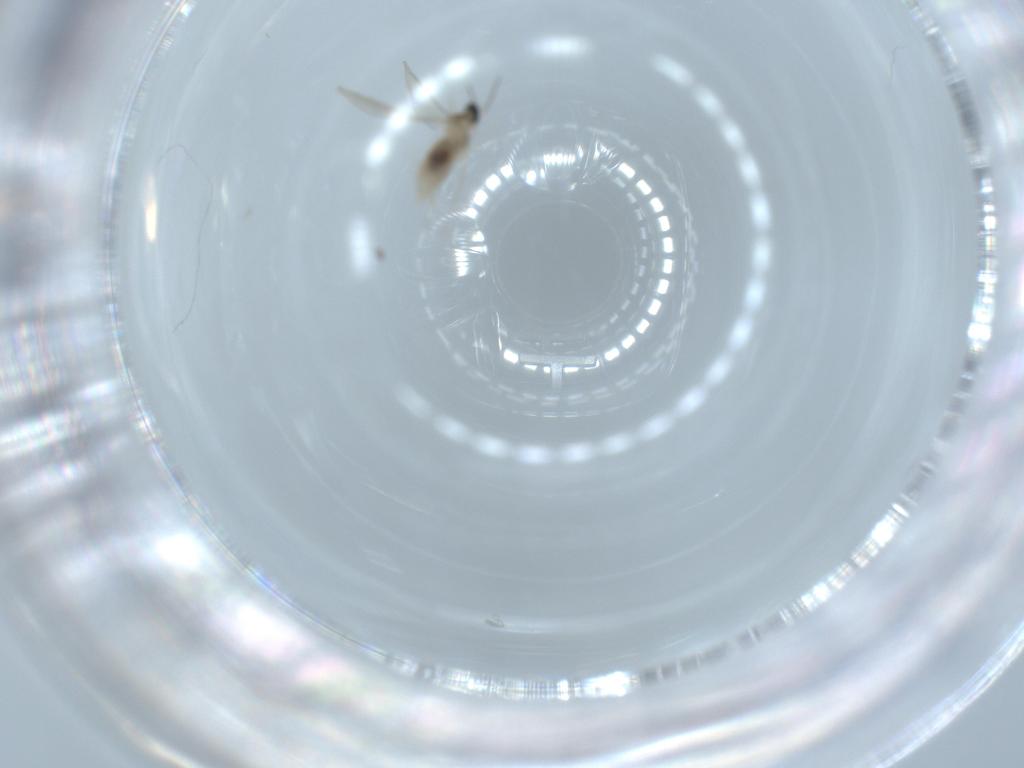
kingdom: Animalia
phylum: Arthropoda
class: Insecta
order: Diptera
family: Cecidomyiidae
